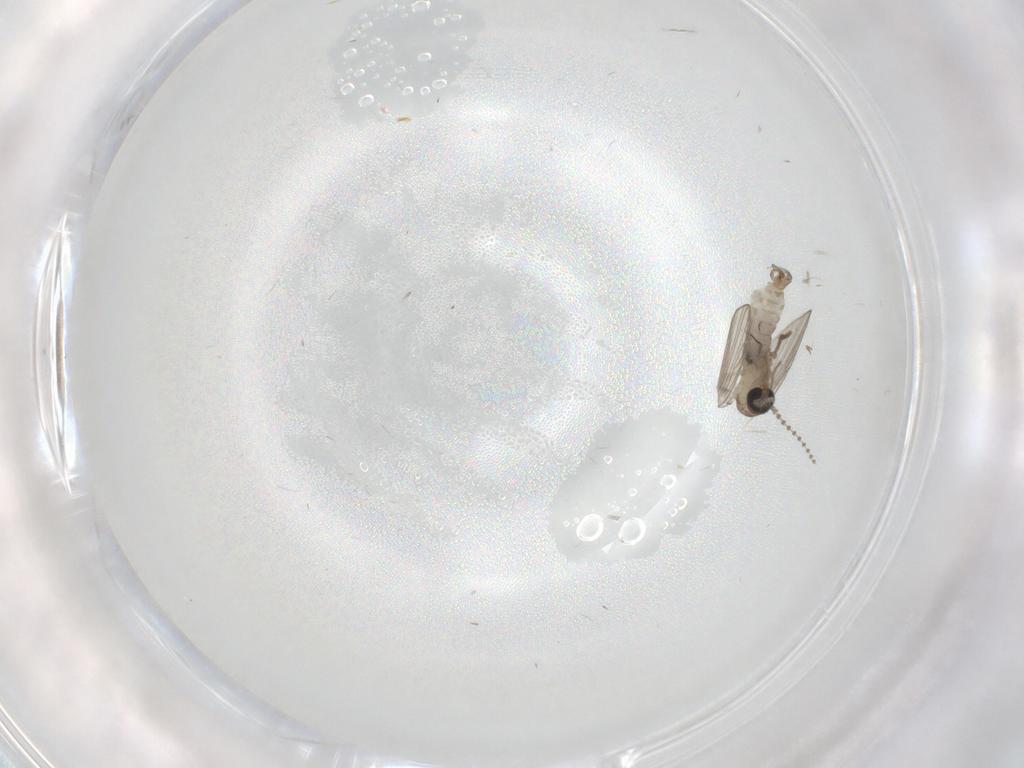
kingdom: Animalia
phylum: Arthropoda
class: Insecta
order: Diptera
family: Psychodidae
